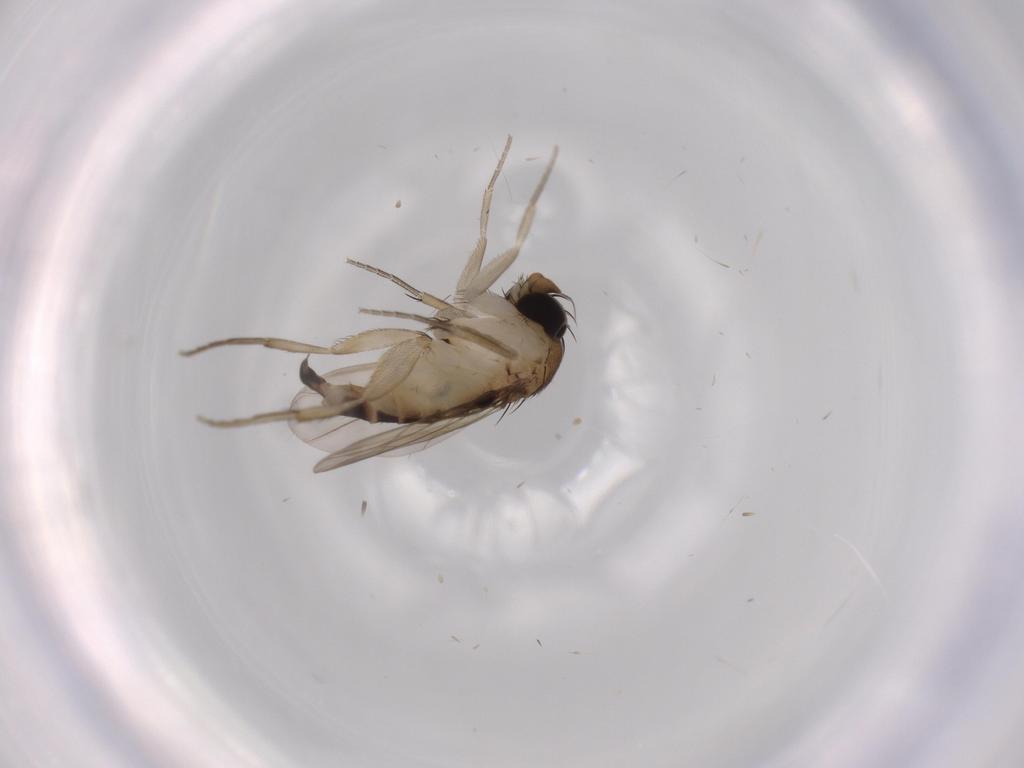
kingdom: Animalia
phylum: Arthropoda
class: Insecta
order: Diptera
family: Phoridae
